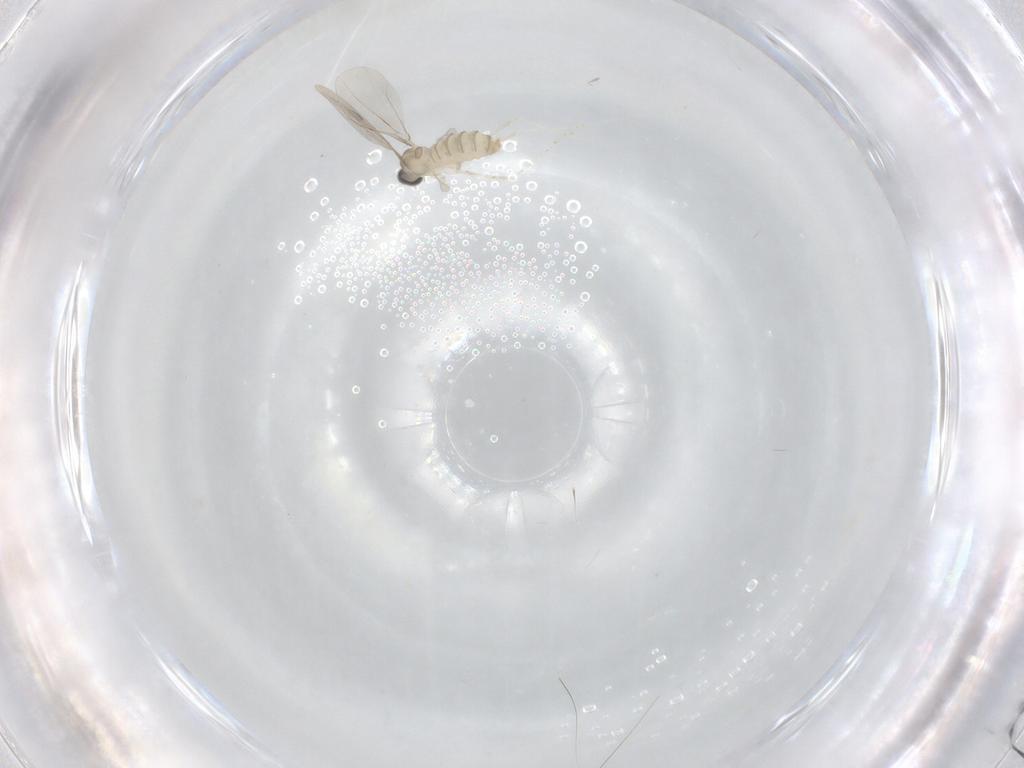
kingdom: Animalia
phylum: Arthropoda
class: Insecta
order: Diptera
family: Cecidomyiidae
